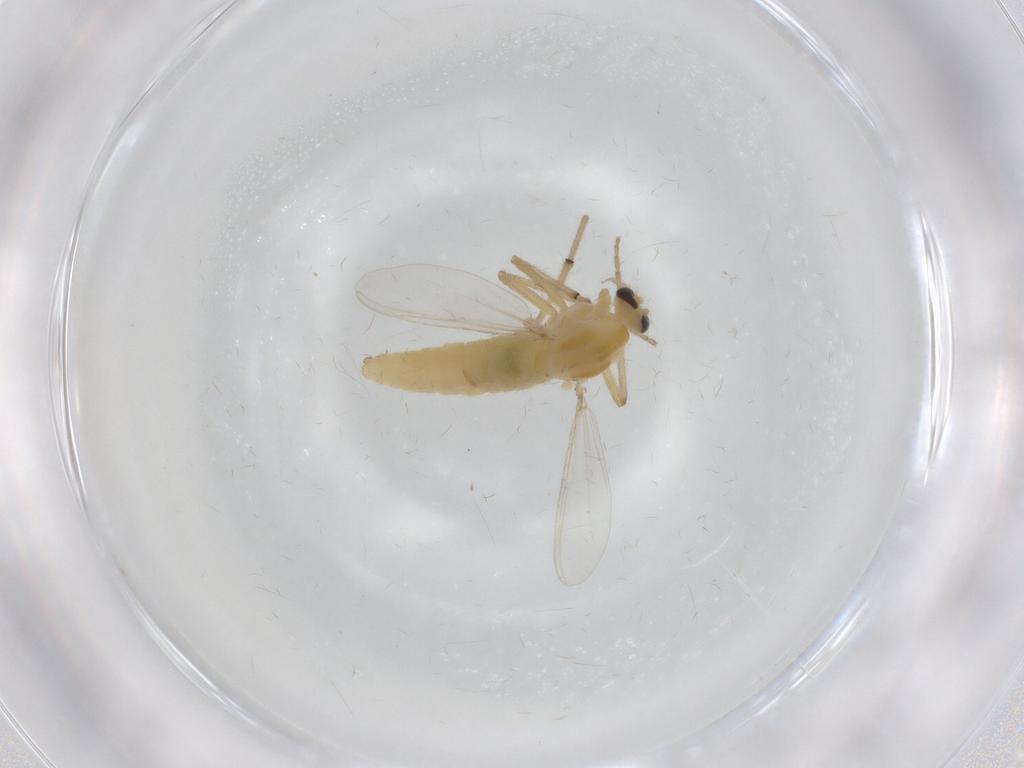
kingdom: Animalia
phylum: Arthropoda
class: Insecta
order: Diptera
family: Chironomidae
